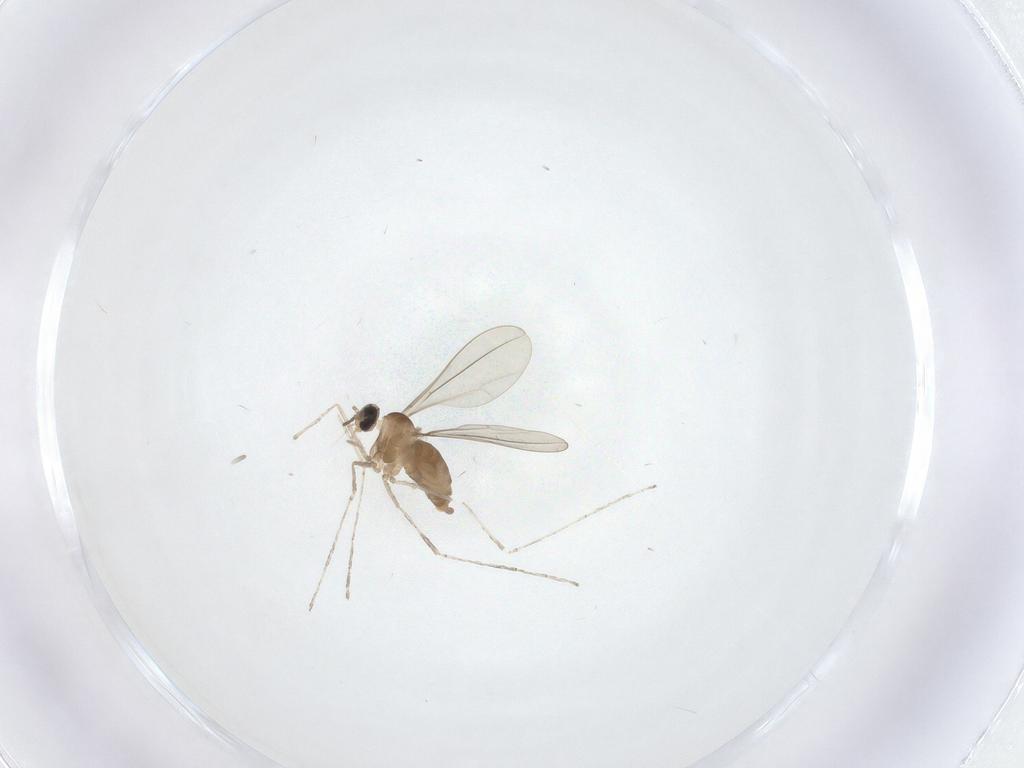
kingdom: Animalia
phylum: Arthropoda
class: Insecta
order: Diptera
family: Cecidomyiidae
